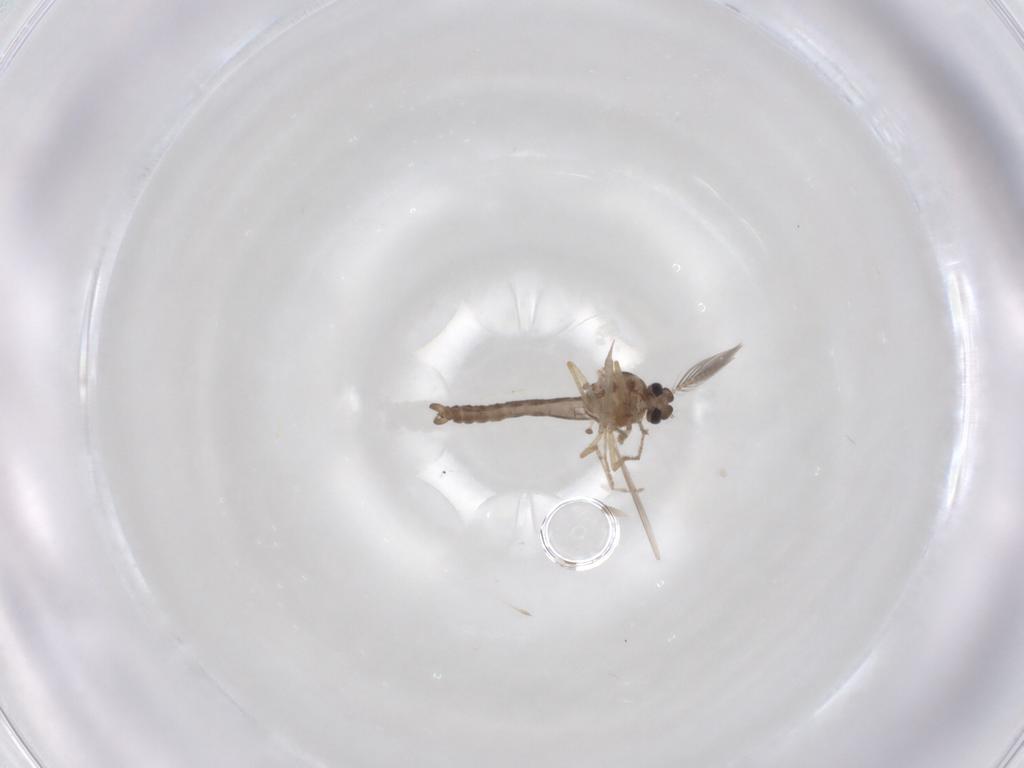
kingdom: Animalia
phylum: Arthropoda
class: Insecta
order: Diptera
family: Ceratopogonidae
